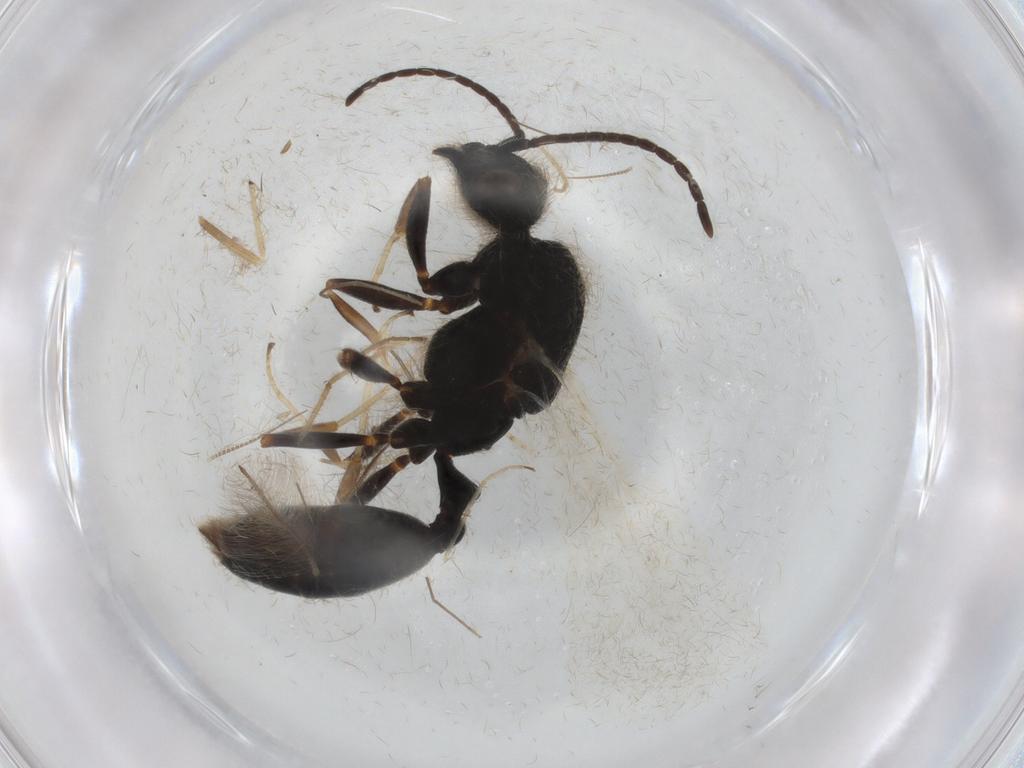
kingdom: Animalia
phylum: Arthropoda
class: Insecta
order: Hymenoptera
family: Formicidae
